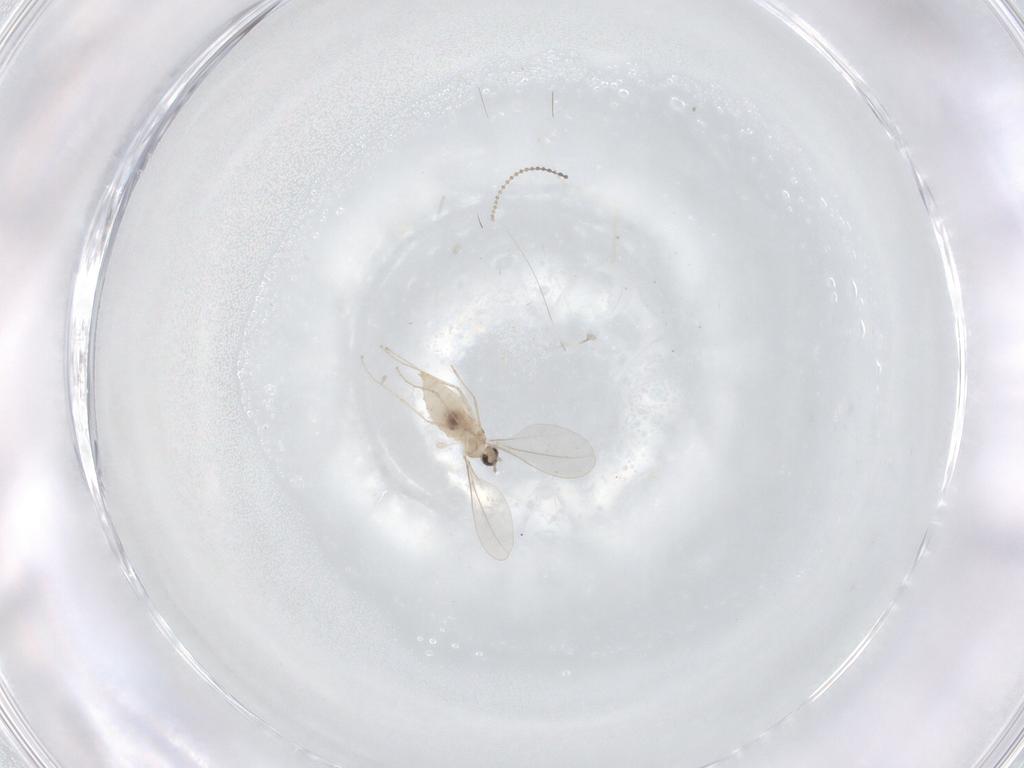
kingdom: Animalia
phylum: Arthropoda
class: Insecta
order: Diptera
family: Cecidomyiidae
